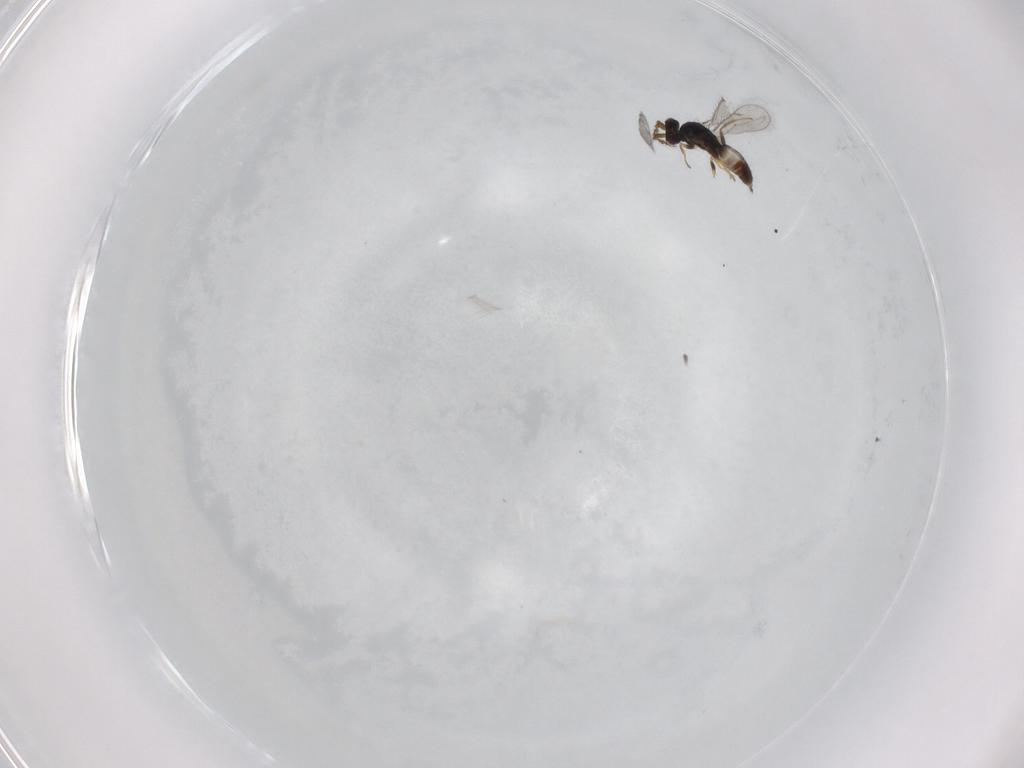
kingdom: Animalia
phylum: Arthropoda
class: Insecta
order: Hymenoptera
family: Eulophidae
